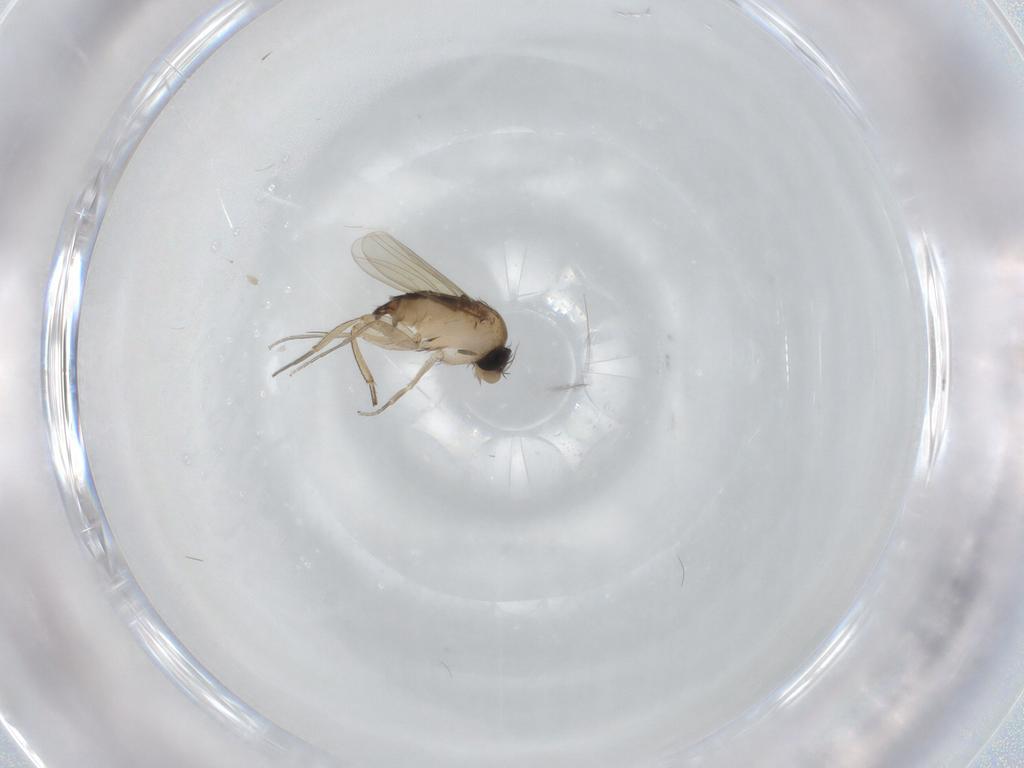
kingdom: Animalia
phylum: Arthropoda
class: Insecta
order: Diptera
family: Phoridae
